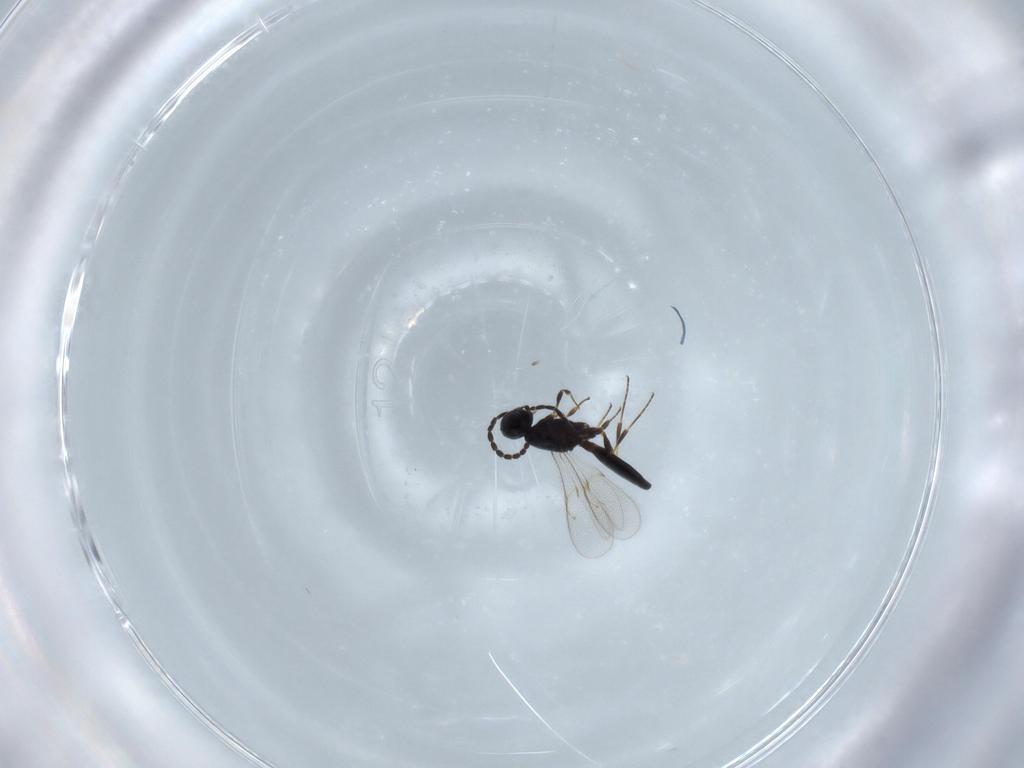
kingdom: Animalia
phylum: Arthropoda
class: Insecta
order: Hymenoptera
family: Scelionidae
